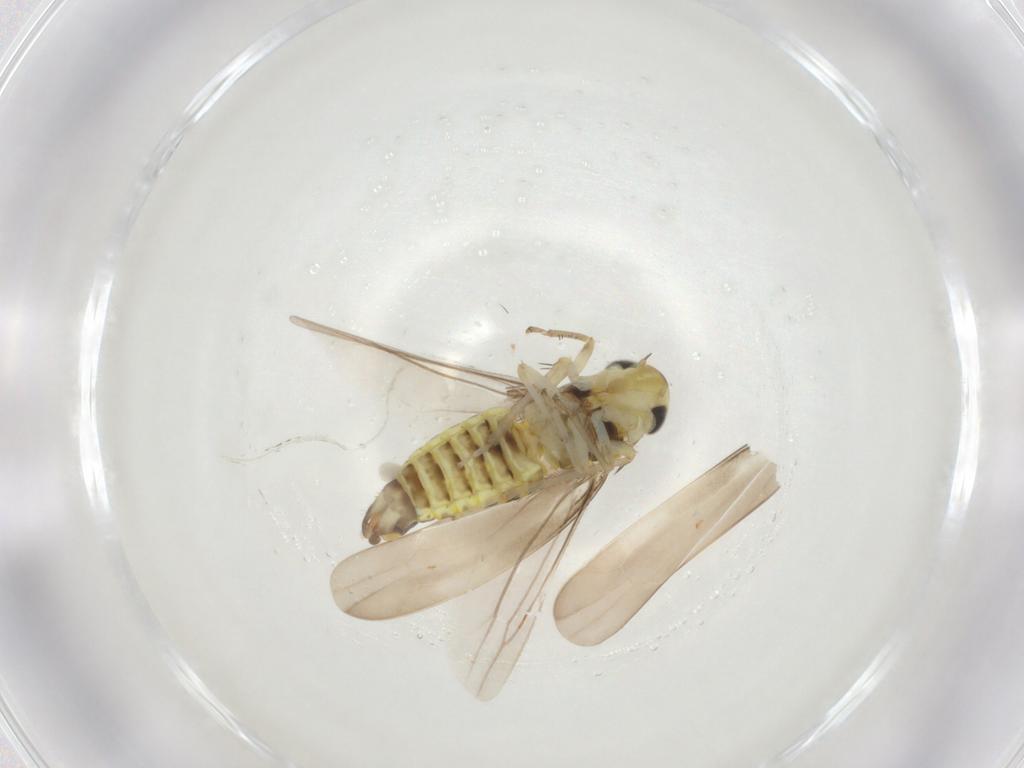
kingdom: Animalia
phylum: Arthropoda
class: Insecta
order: Hemiptera
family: Cicadellidae
